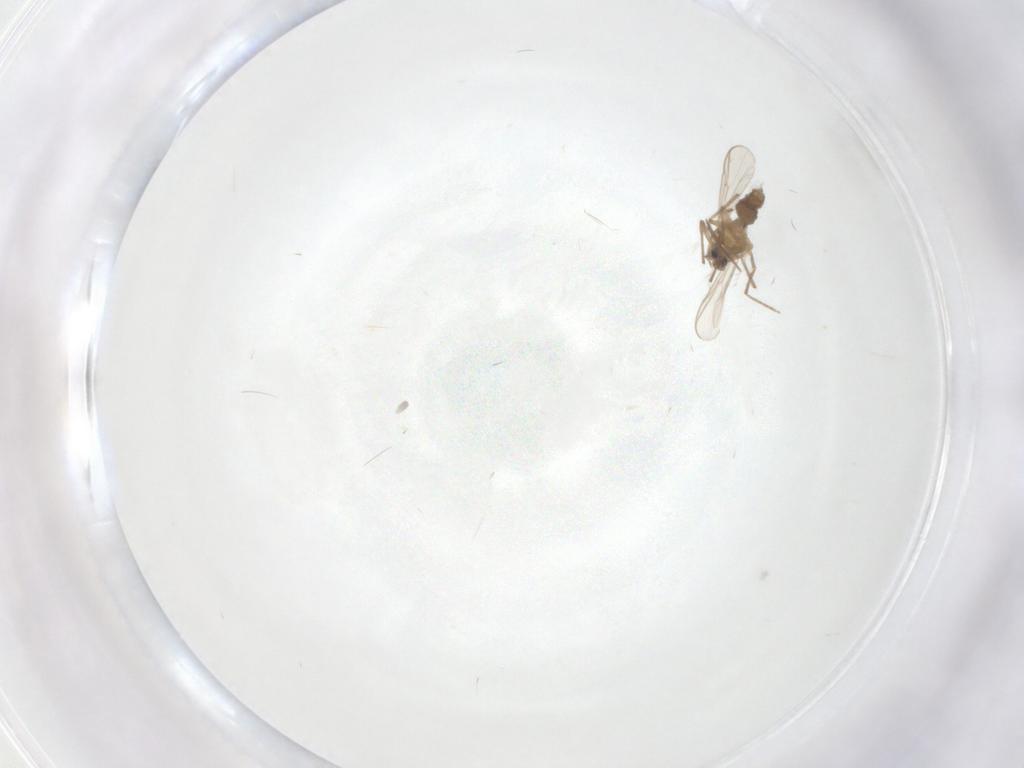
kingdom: Animalia
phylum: Arthropoda
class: Insecta
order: Diptera
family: Chironomidae
